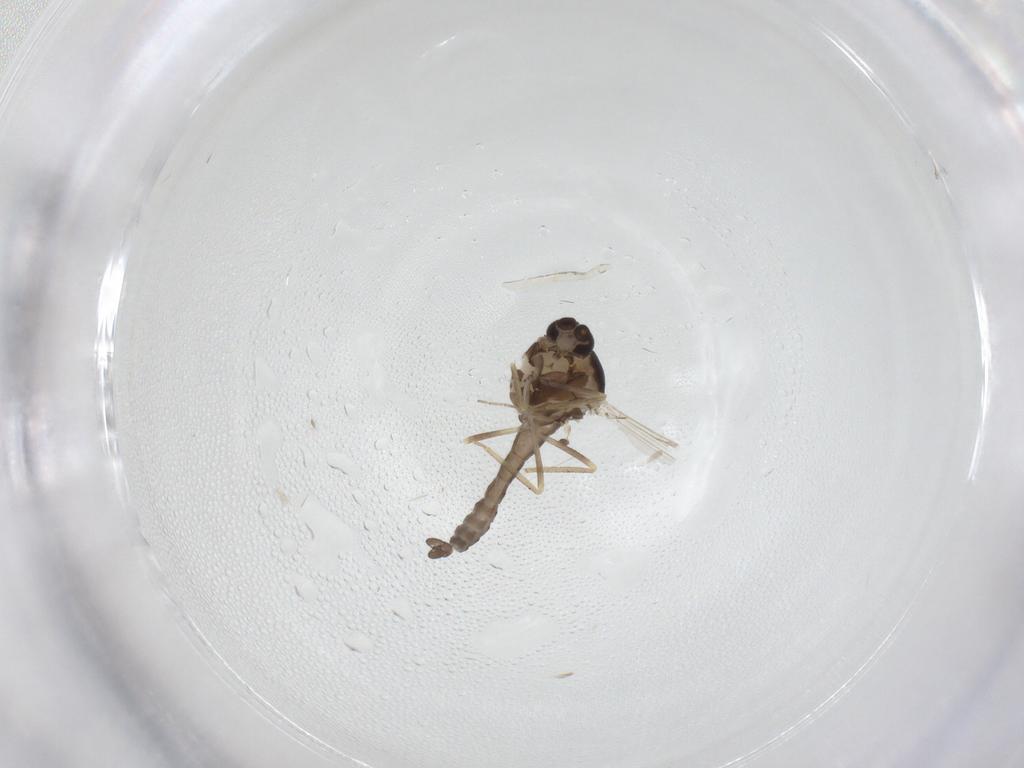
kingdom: Animalia
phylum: Arthropoda
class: Insecta
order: Diptera
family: Ceratopogonidae
